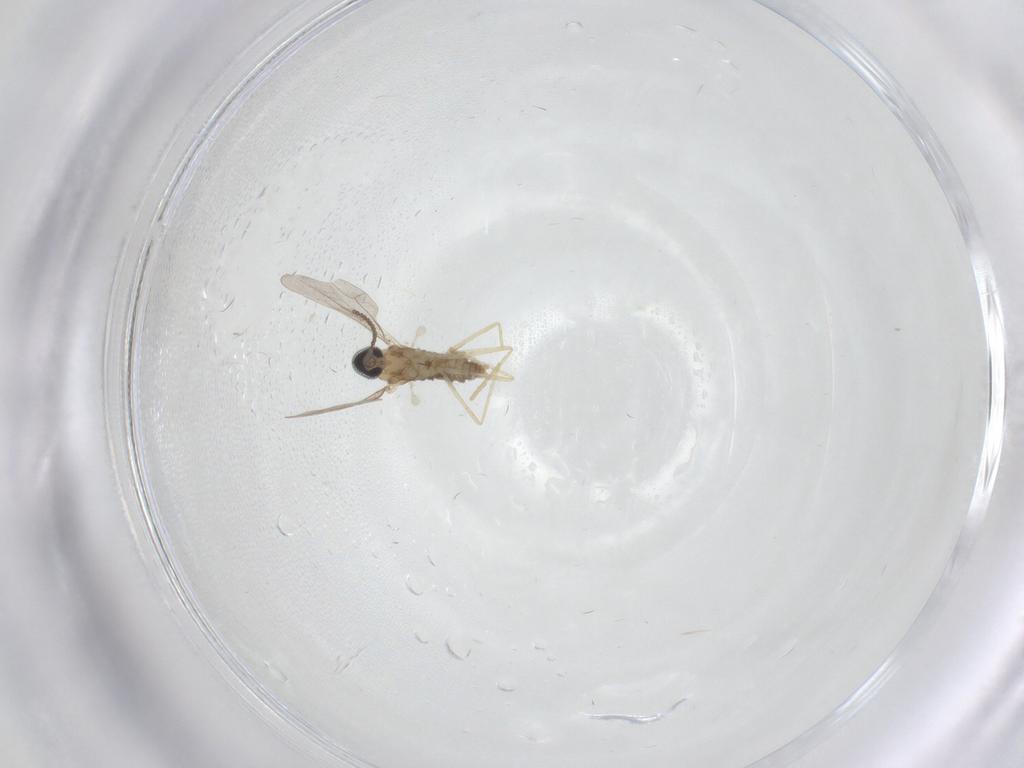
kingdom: Animalia
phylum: Arthropoda
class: Insecta
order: Diptera
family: Cecidomyiidae
